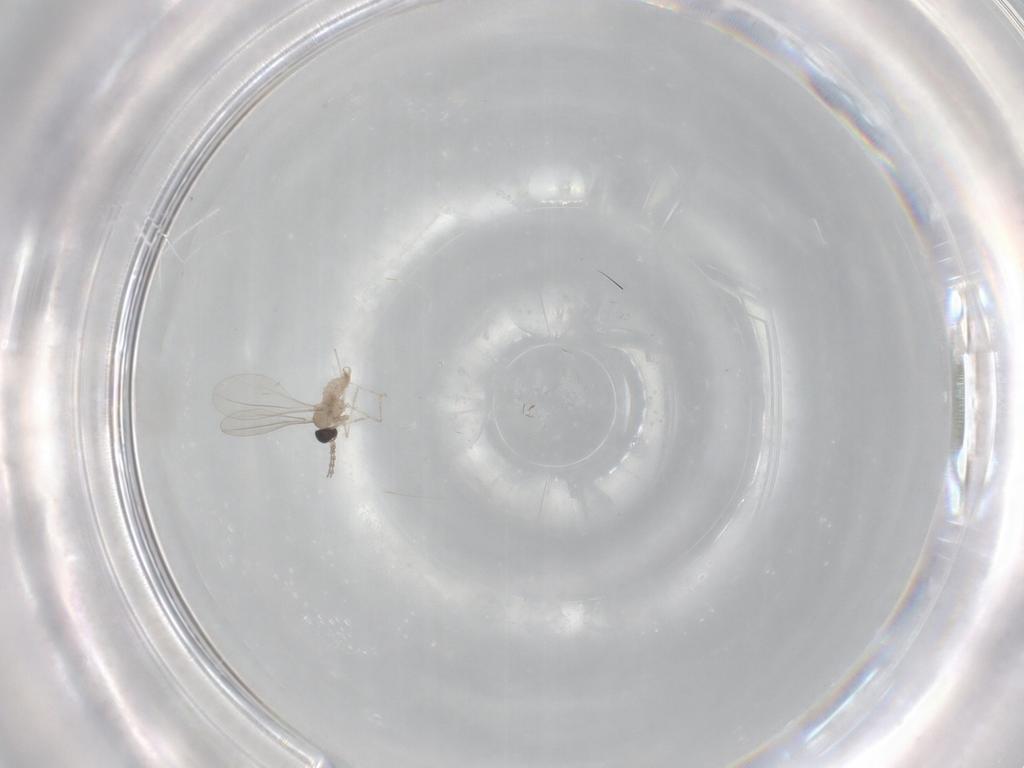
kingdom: Animalia
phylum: Arthropoda
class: Insecta
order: Diptera
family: Cecidomyiidae
